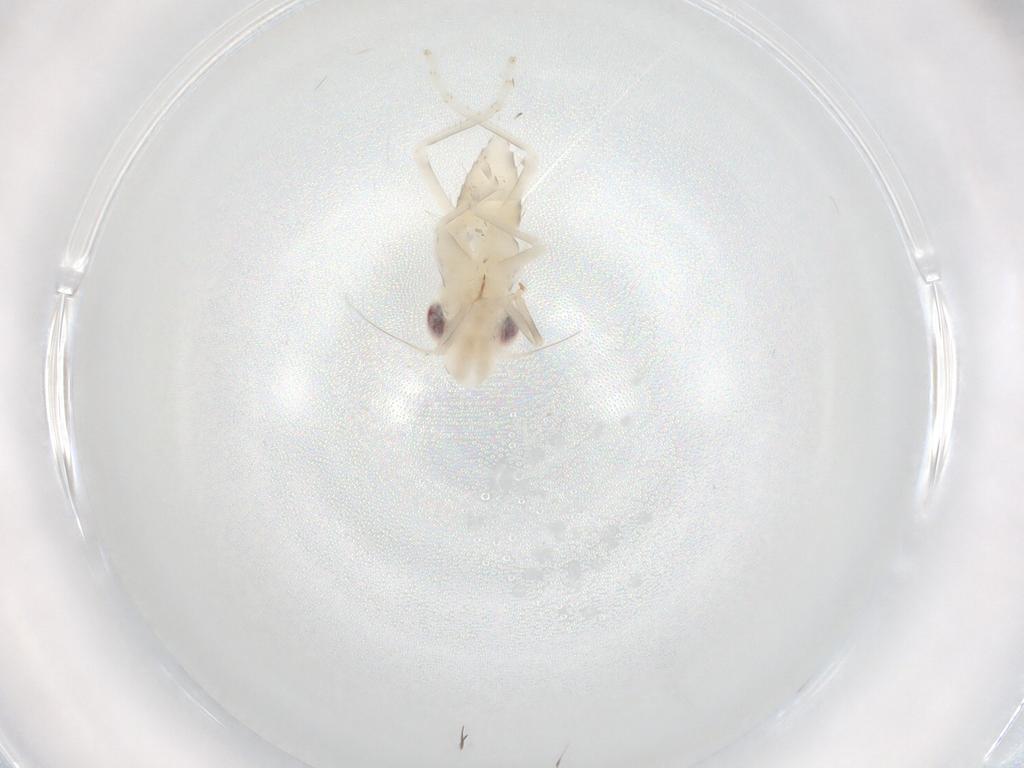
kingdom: Animalia
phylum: Arthropoda
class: Insecta
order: Hemiptera
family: Cicadellidae
